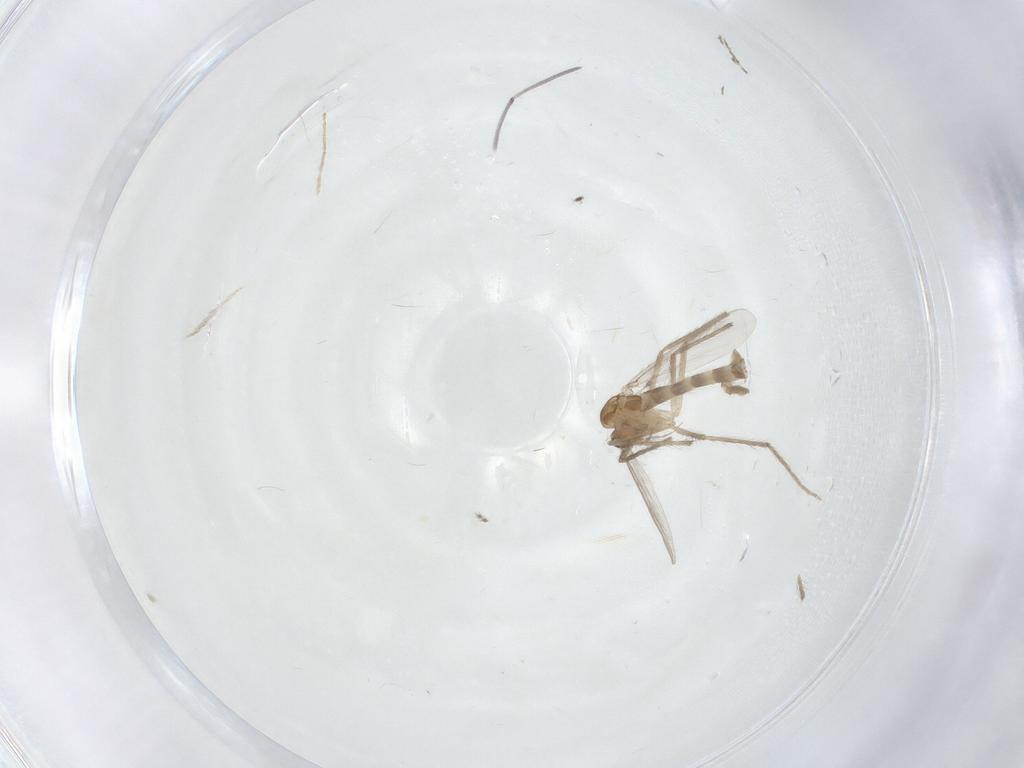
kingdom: Animalia
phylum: Arthropoda
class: Insecta
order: Diptera
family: Chironomidae
